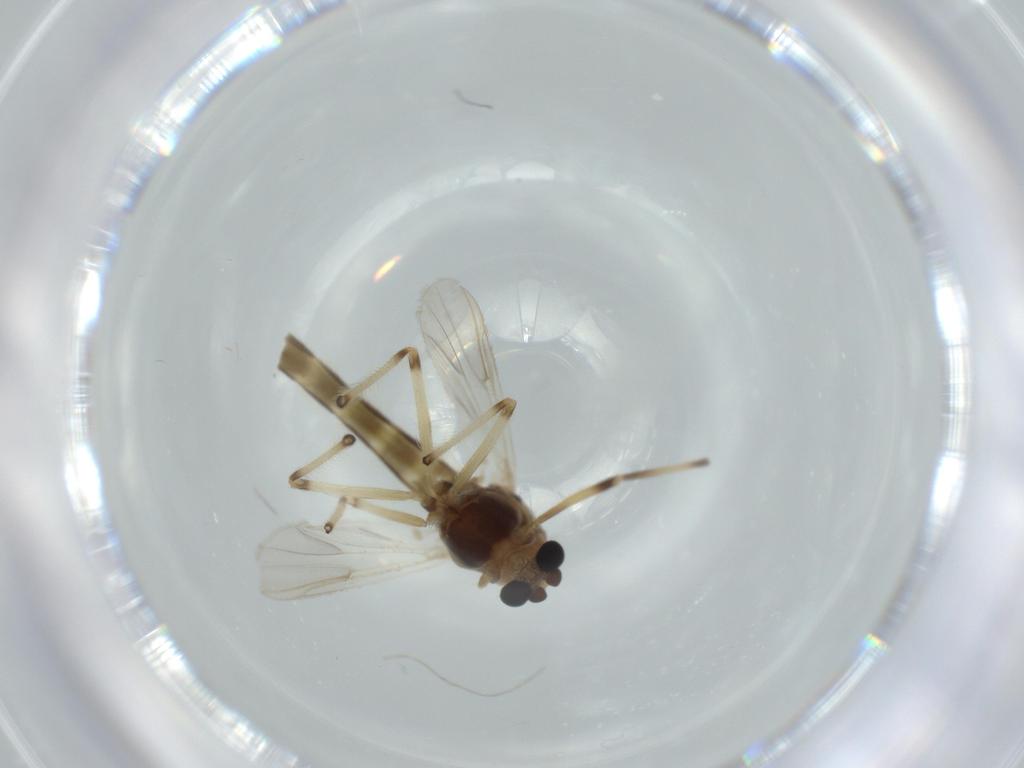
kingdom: Animalia
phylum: Arthropoda
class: Insecta
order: Diptera
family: Chironomidae
